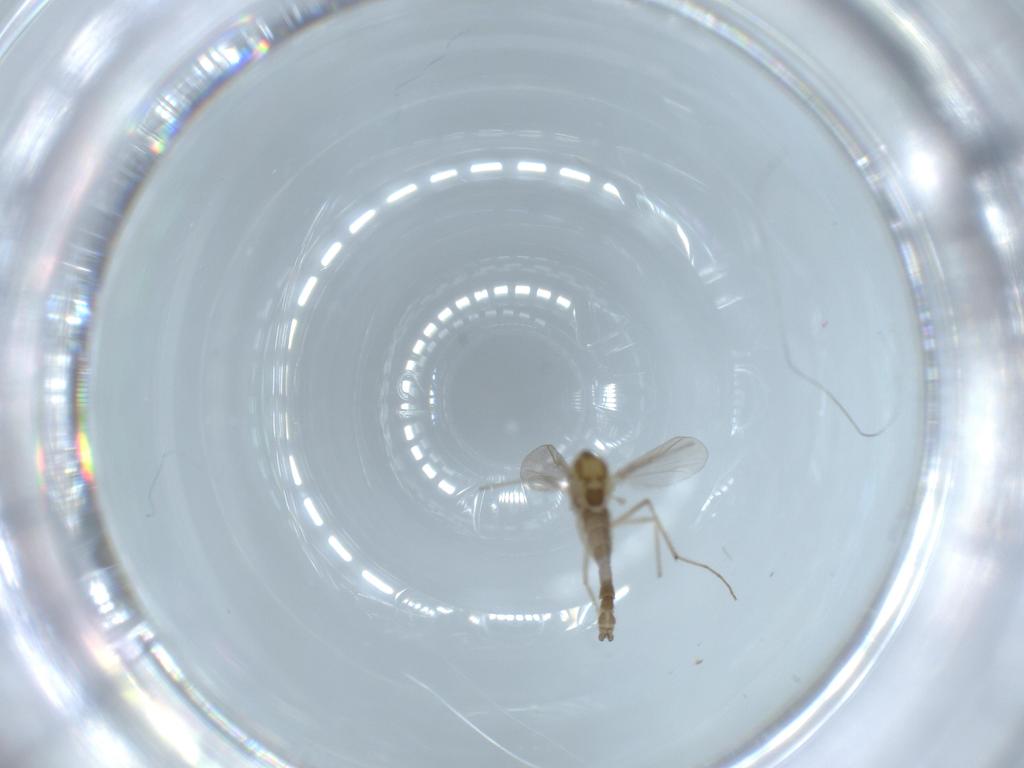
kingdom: Animalia
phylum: Arthropoda
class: Insecta
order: Diptera
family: Chironomidae
